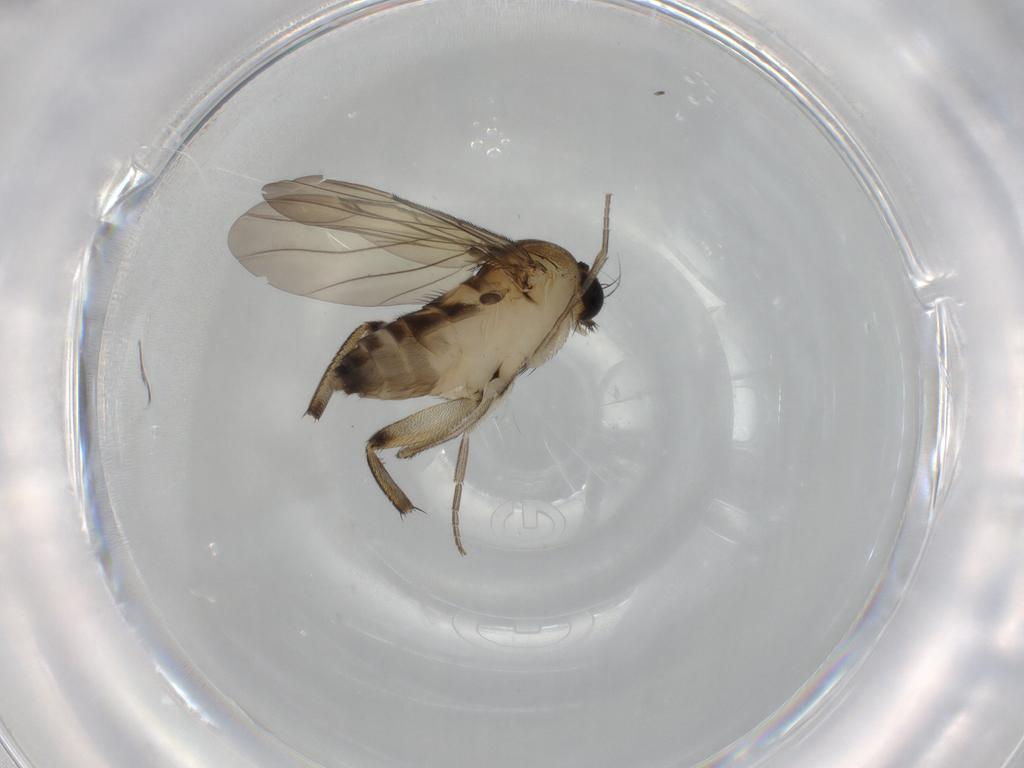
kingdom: Animalia
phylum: Arthropoda
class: Insecta
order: Diptera
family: Phoridae
